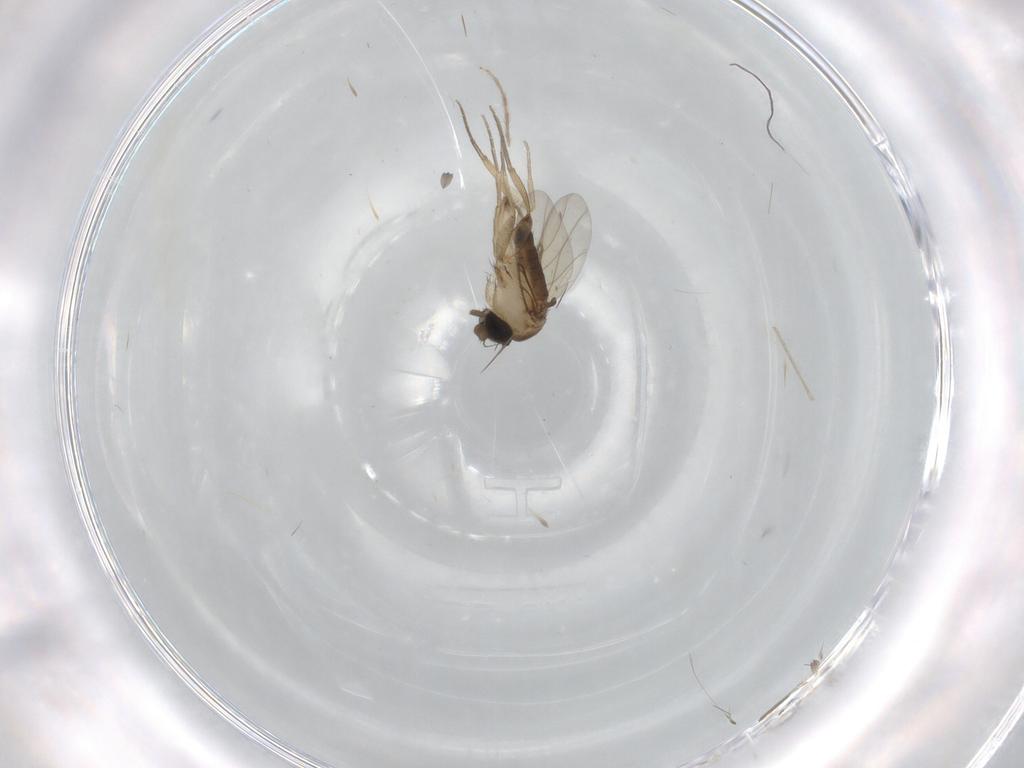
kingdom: Animalia
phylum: Arthropoda
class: Insecta
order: Diptera
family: Phoridae
